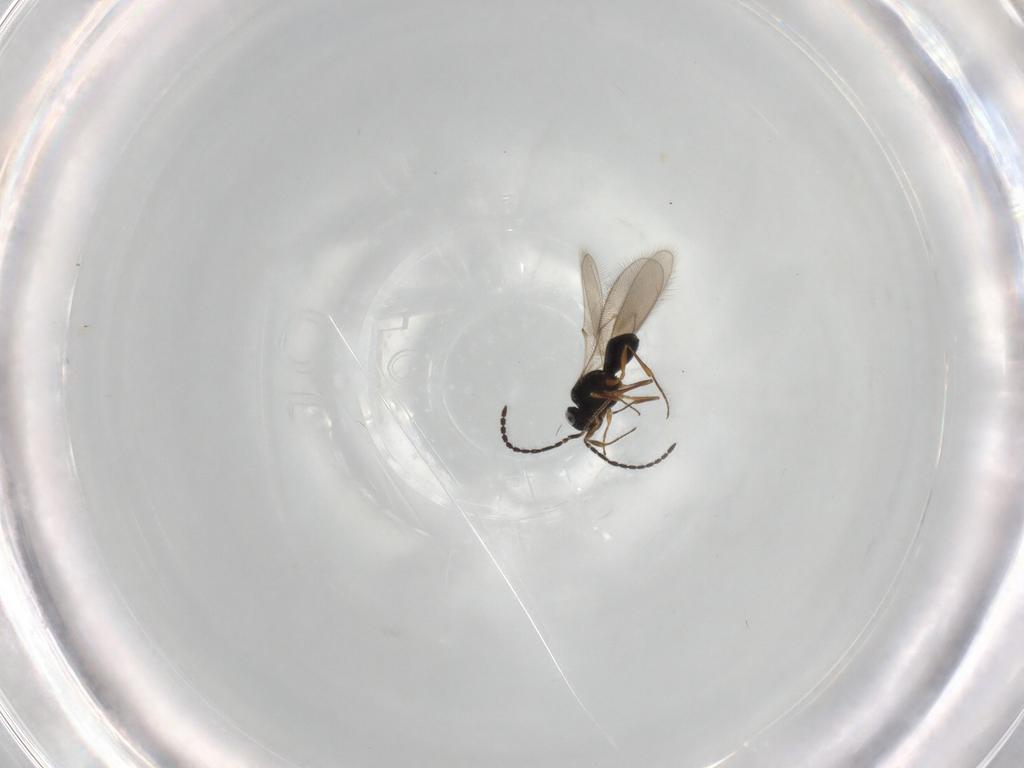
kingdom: Animalia
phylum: Arthropoda
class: Insecta
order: Hymenoptera
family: Scelionidae
